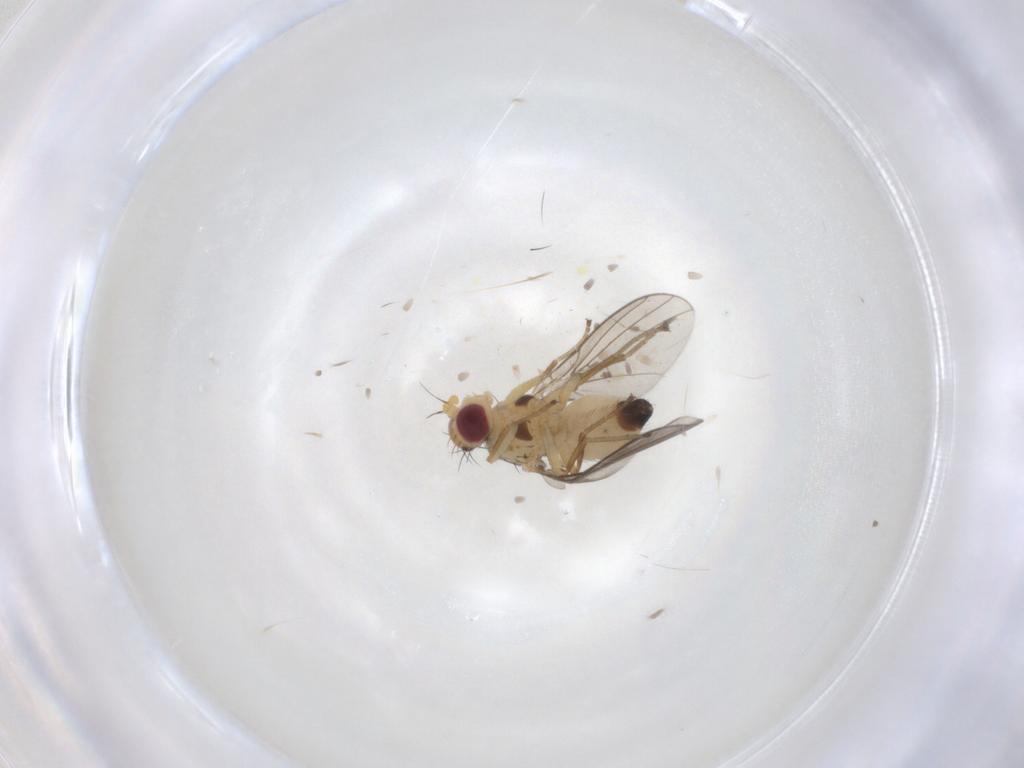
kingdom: Animalia
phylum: Arthropoda
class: Insecta
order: Diptera
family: Agromyzidae
